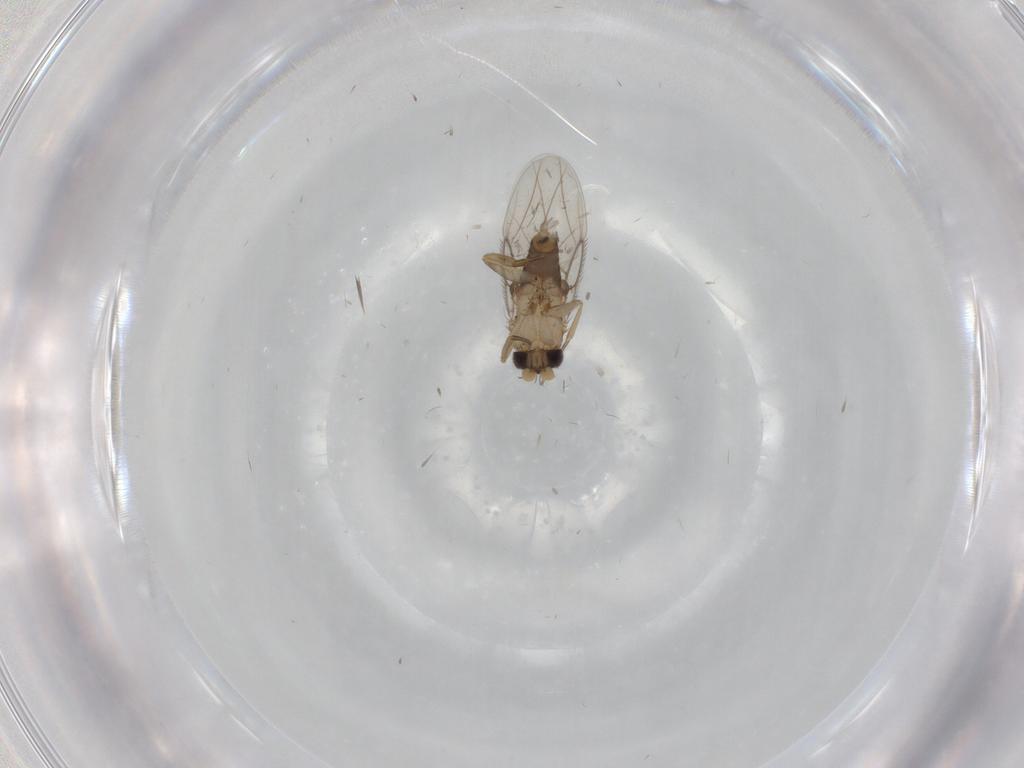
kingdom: Animalia
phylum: Arthropoda
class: Insecta
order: Diptera
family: Phoridae
